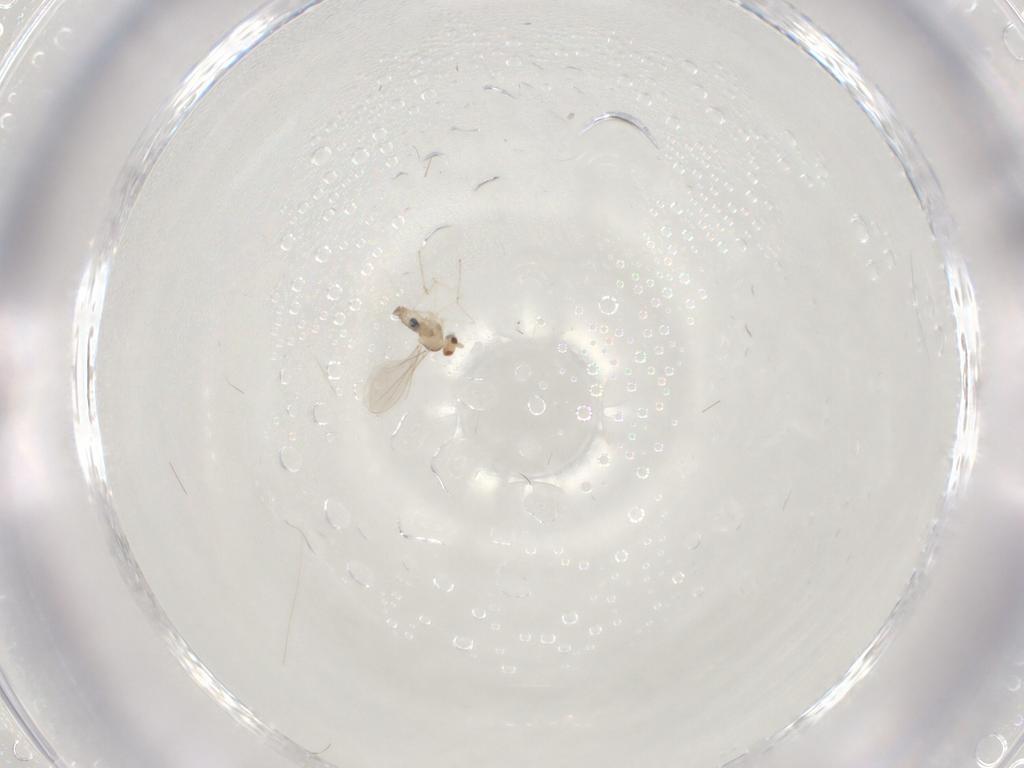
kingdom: Animalia
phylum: Arthropoda
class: Insecta
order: Diptera
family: Cecidomyiidae
